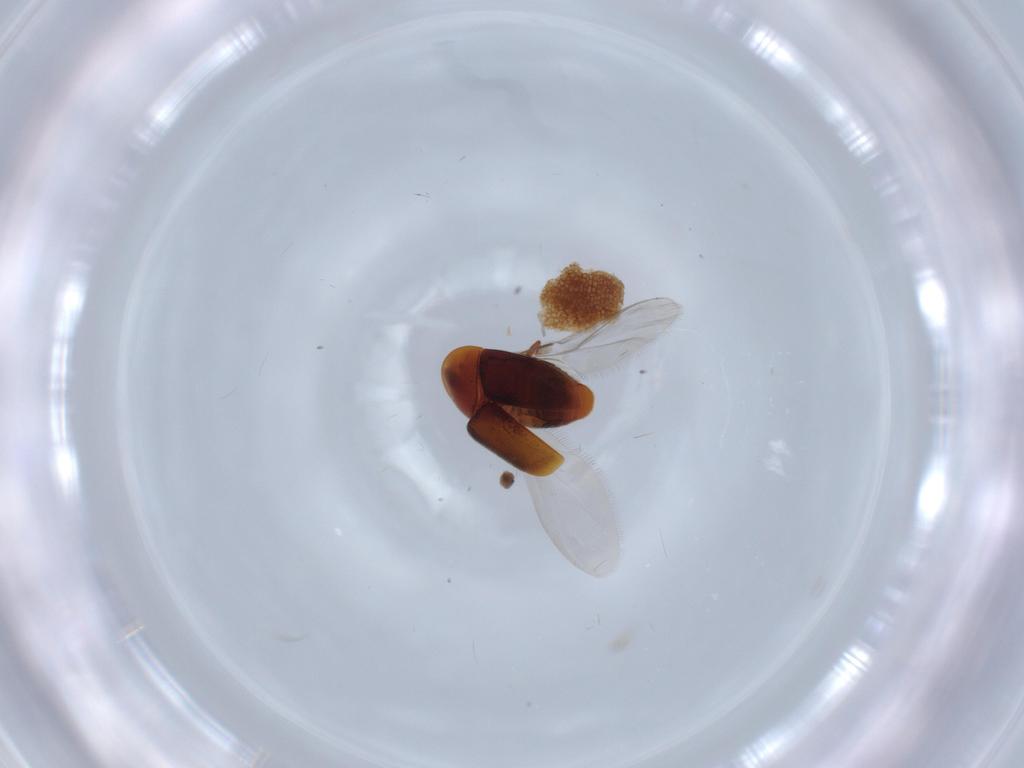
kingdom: Animalia
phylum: Arthropoda
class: Insecta
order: Coleoptera
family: Corylophidae
